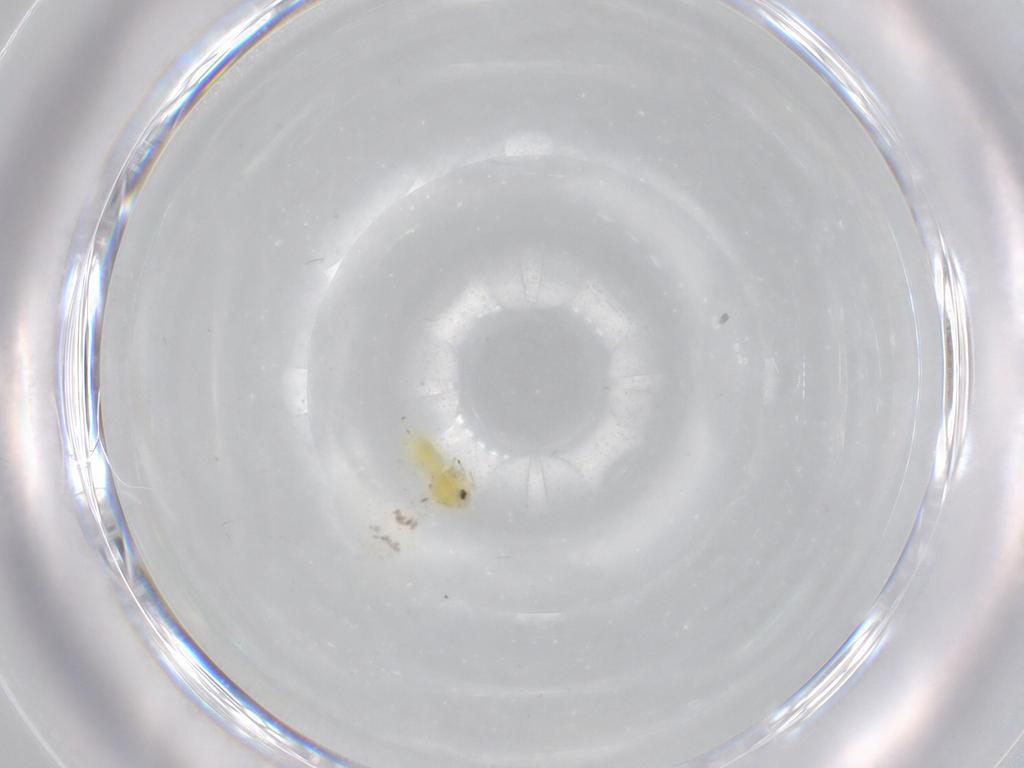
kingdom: Animalia
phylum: Arthropoda
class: Insecta
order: Hemiptera
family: Aleyrodidae
